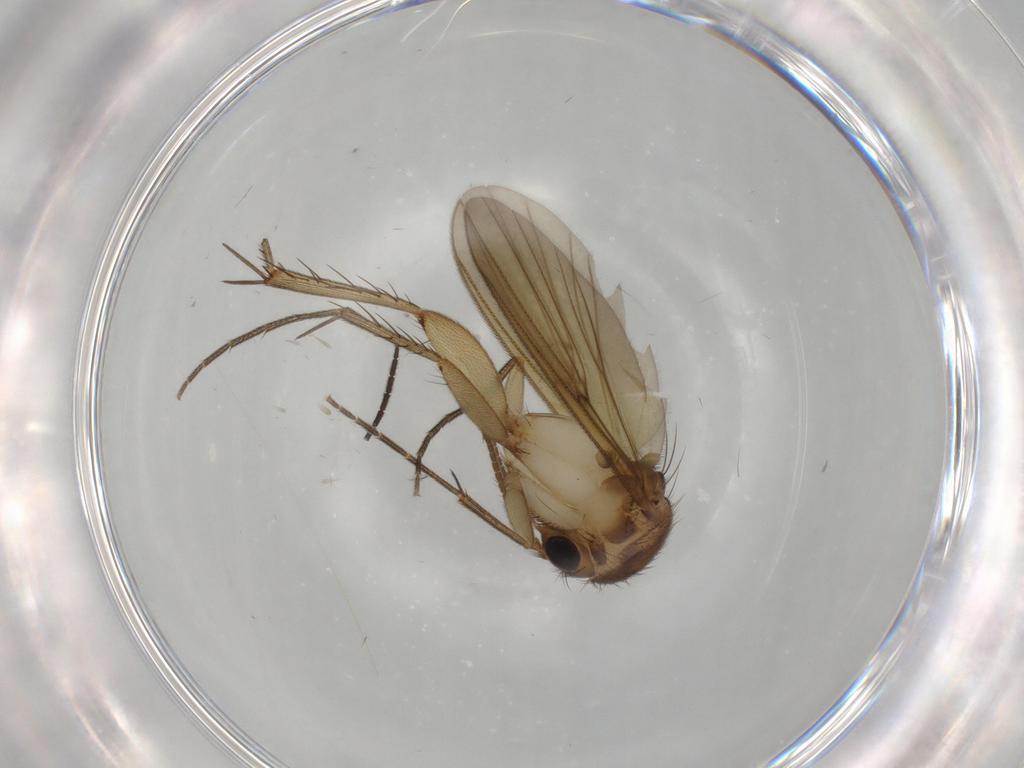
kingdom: Animalia
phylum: Arthropoda
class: Insecta
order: Diptera
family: Mycetophilidae
